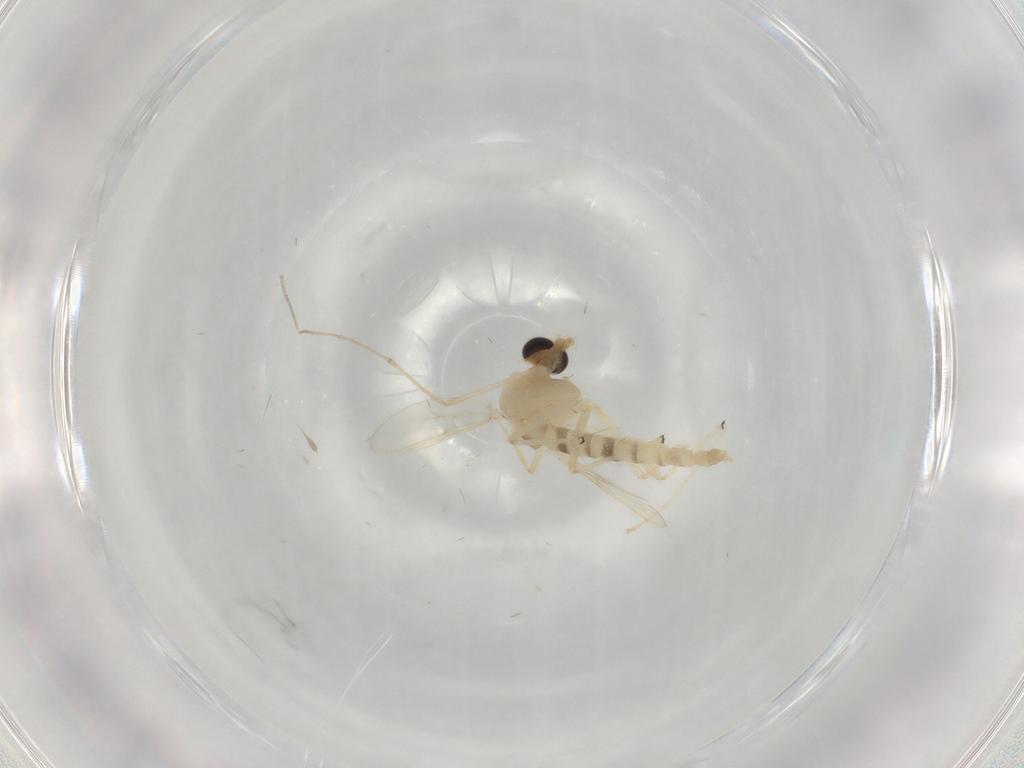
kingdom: Animalia
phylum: Arthropoda
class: Insecta
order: Diptera
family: Chironomidae
